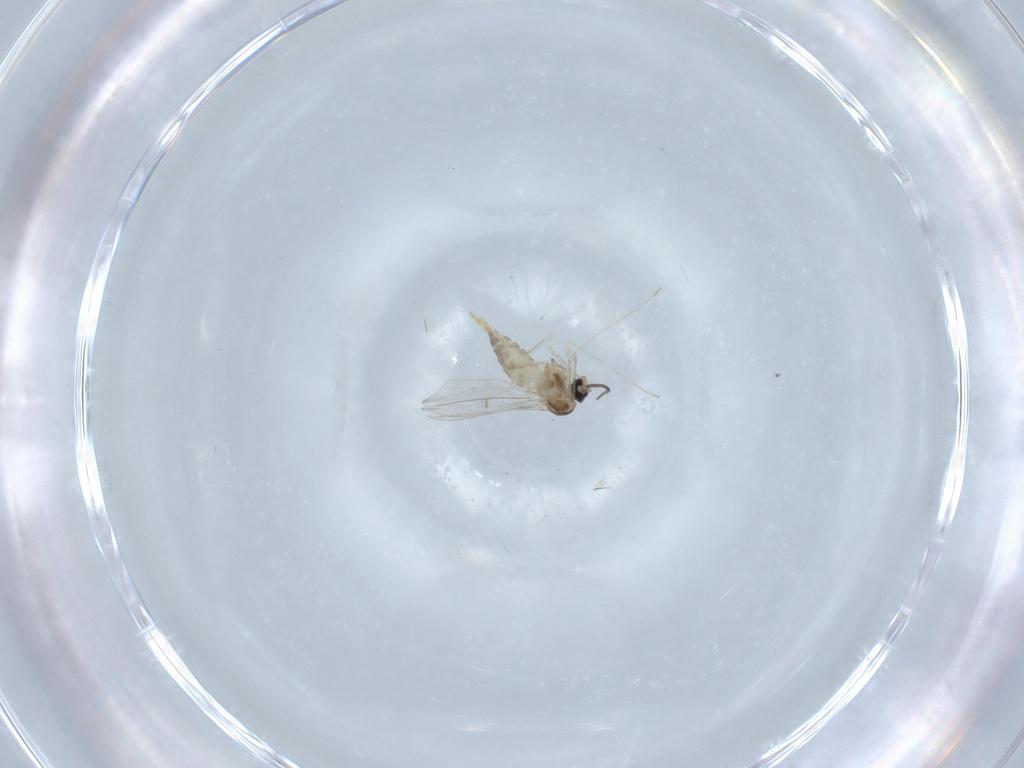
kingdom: Animalia
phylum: Arthropoda
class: Insecta
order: Diptera
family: Cecidomyiidae
